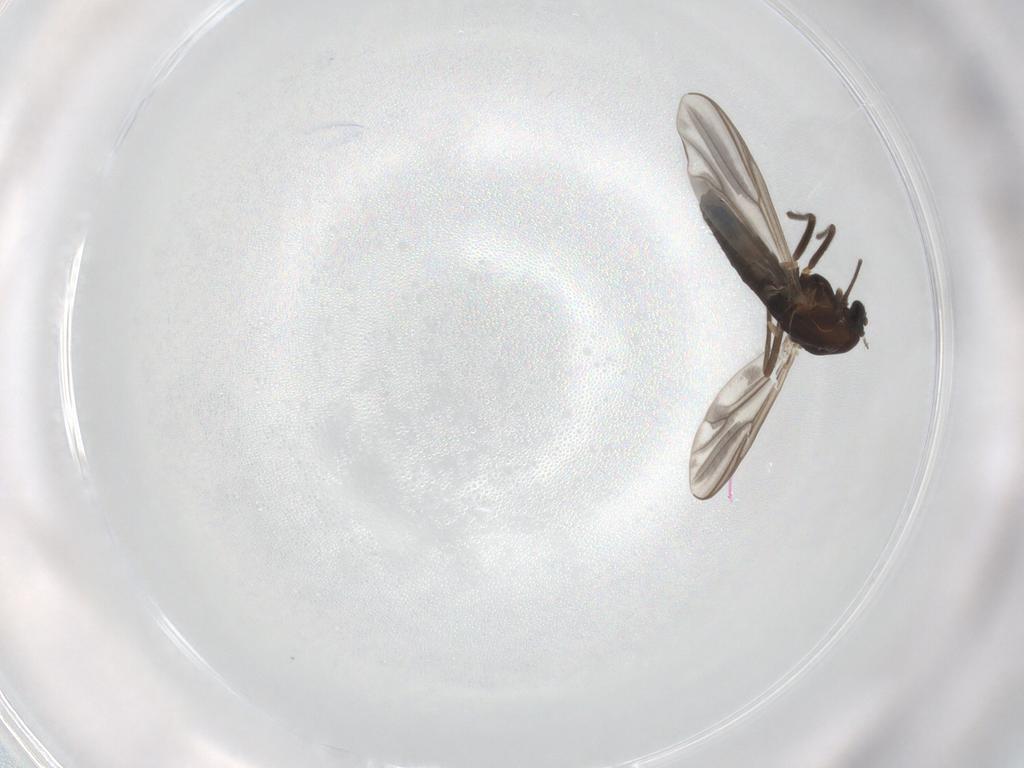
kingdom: Animalia
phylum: Arthropoda
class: Insecta
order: Diptera
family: Chironomidae
